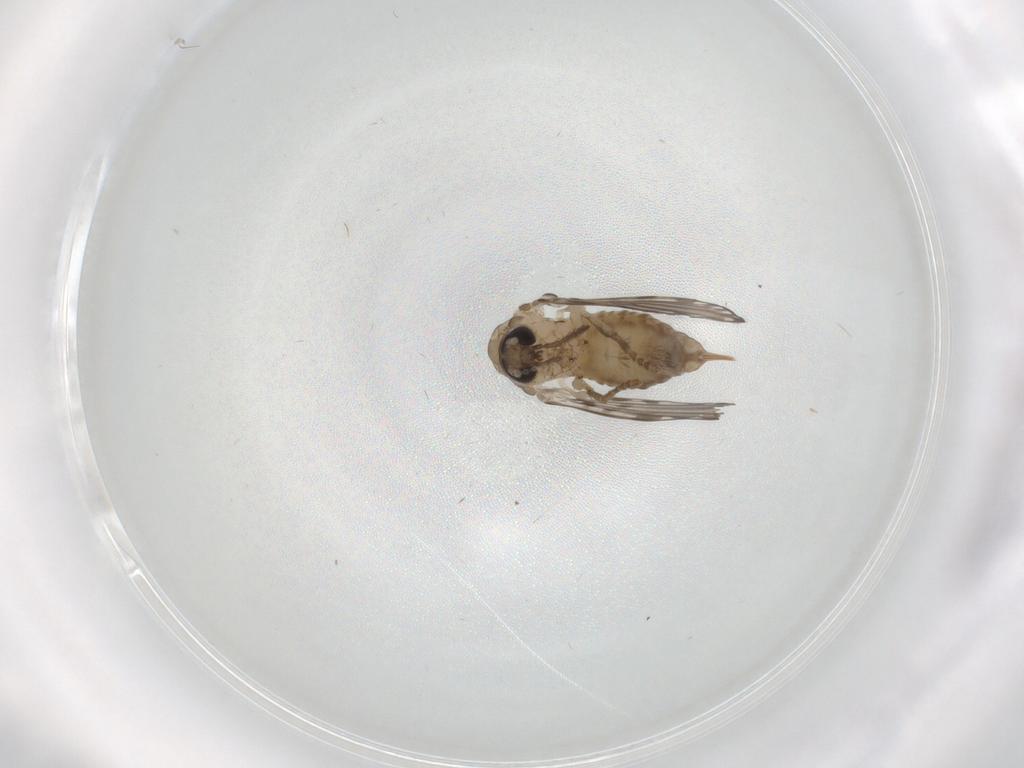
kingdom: Animalia
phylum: Arthropoda
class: Insecta
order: Diptera
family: Psychodidae
